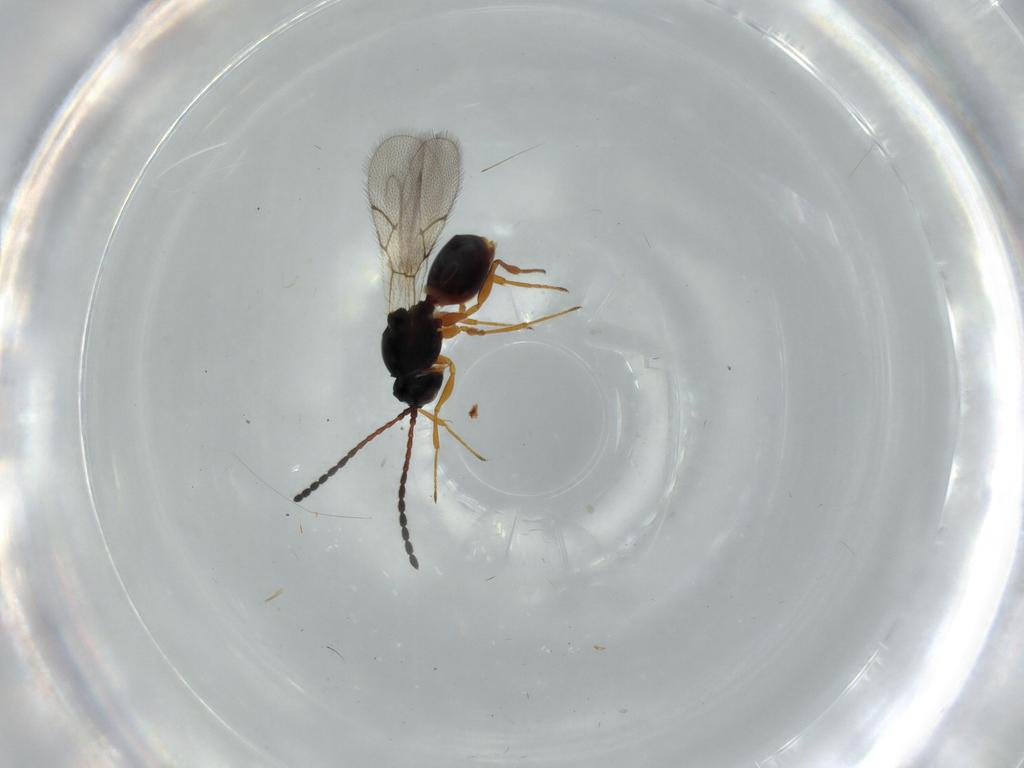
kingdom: Animalia
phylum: Arthropoda
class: Insecta
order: Hymenoptera
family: Figitidae
